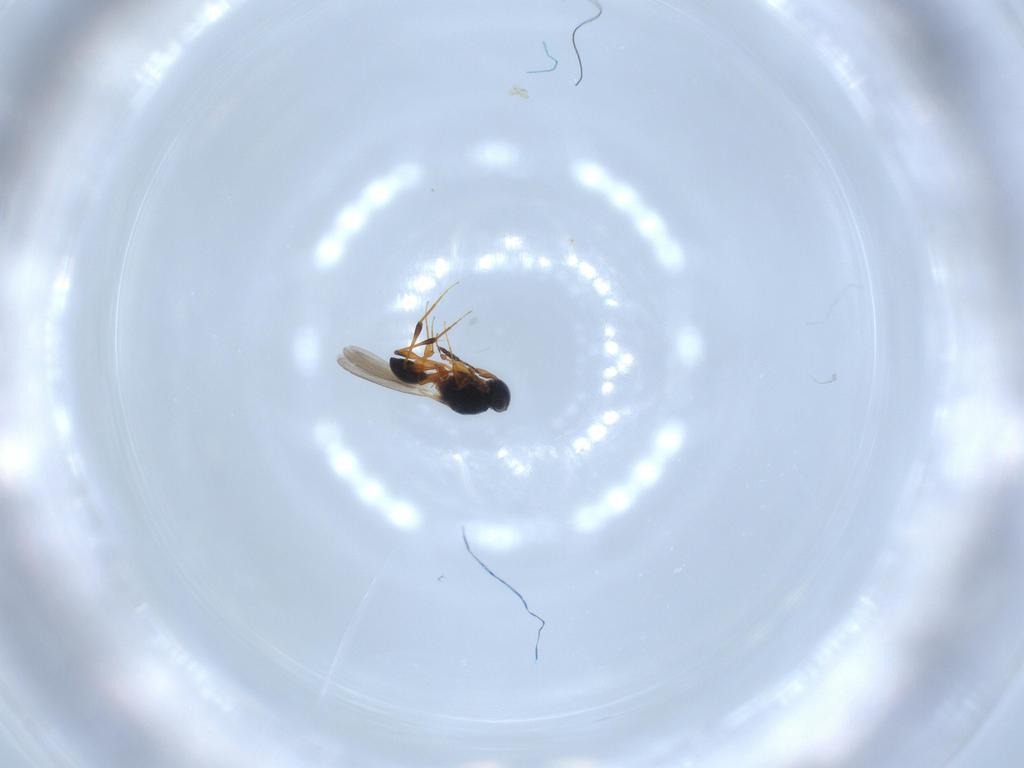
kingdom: Animalia
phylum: Arthropoda
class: Insecta
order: Hymenoptera
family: Platygastridae
